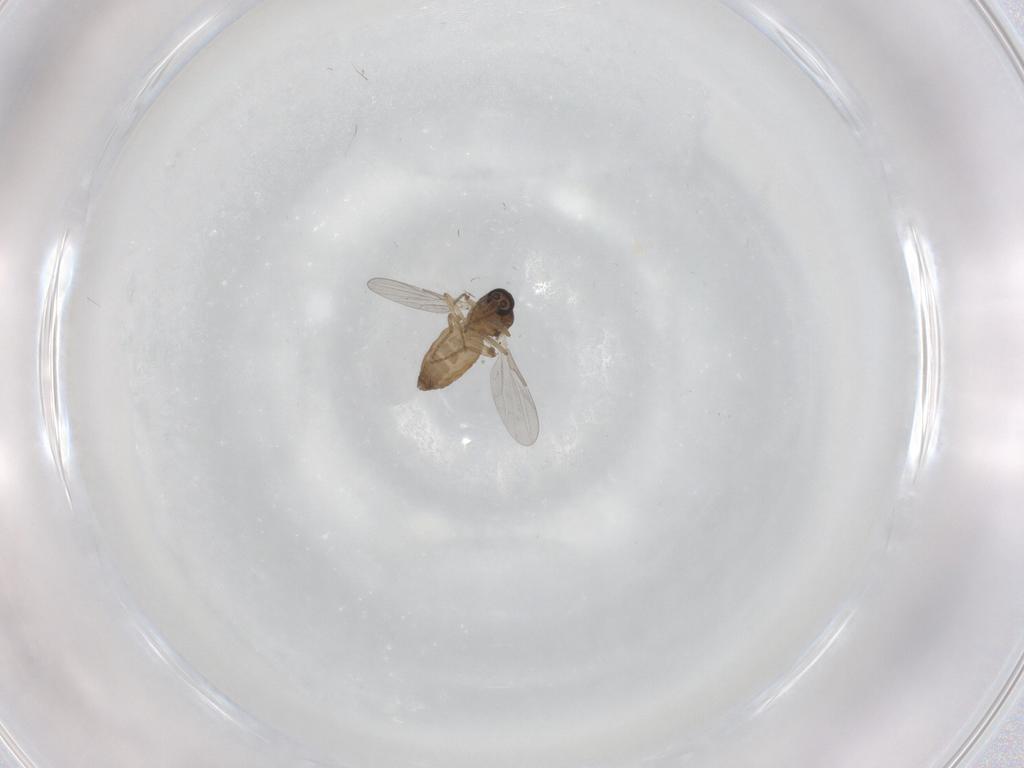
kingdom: Animalia
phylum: Arthropoda
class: Insecta
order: Diptera
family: Ceratopogonidae
